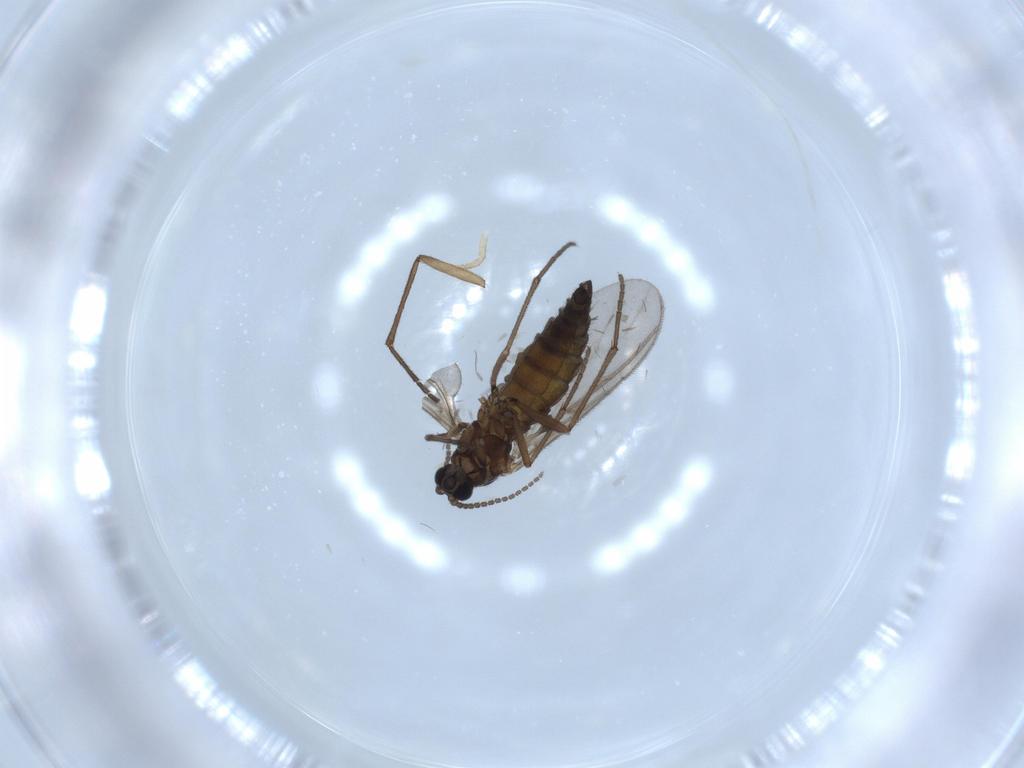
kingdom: Animalia
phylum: Arthropoda
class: Insecta
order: Diptera
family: Sciaridae
